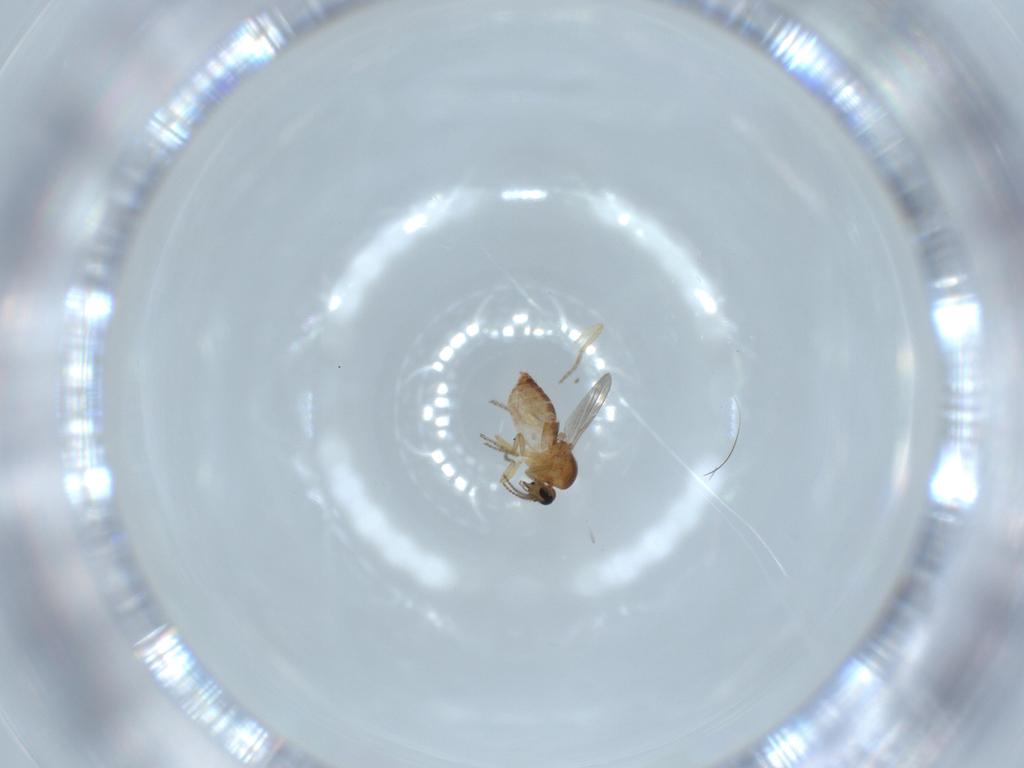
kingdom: Animalia
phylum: Arthropoda
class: Insecta
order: Diptera
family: Ceratopogonidae
